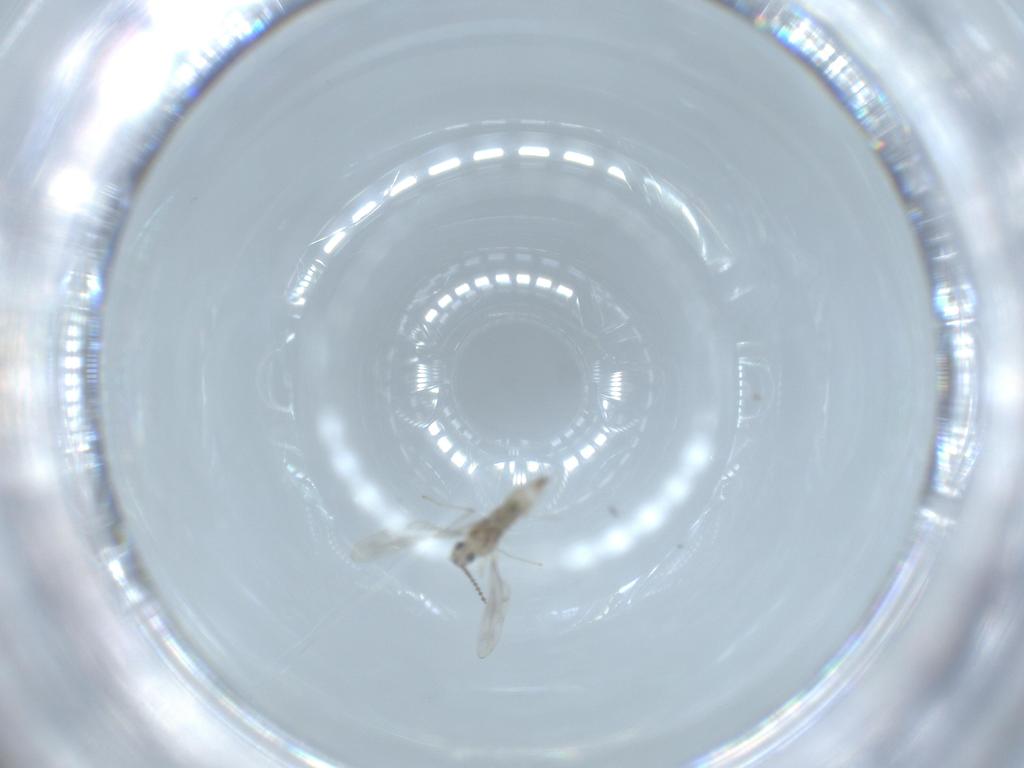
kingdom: Animalia
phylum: Arthropoda
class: Insecta
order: Diptera
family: Cecidomyiidae
